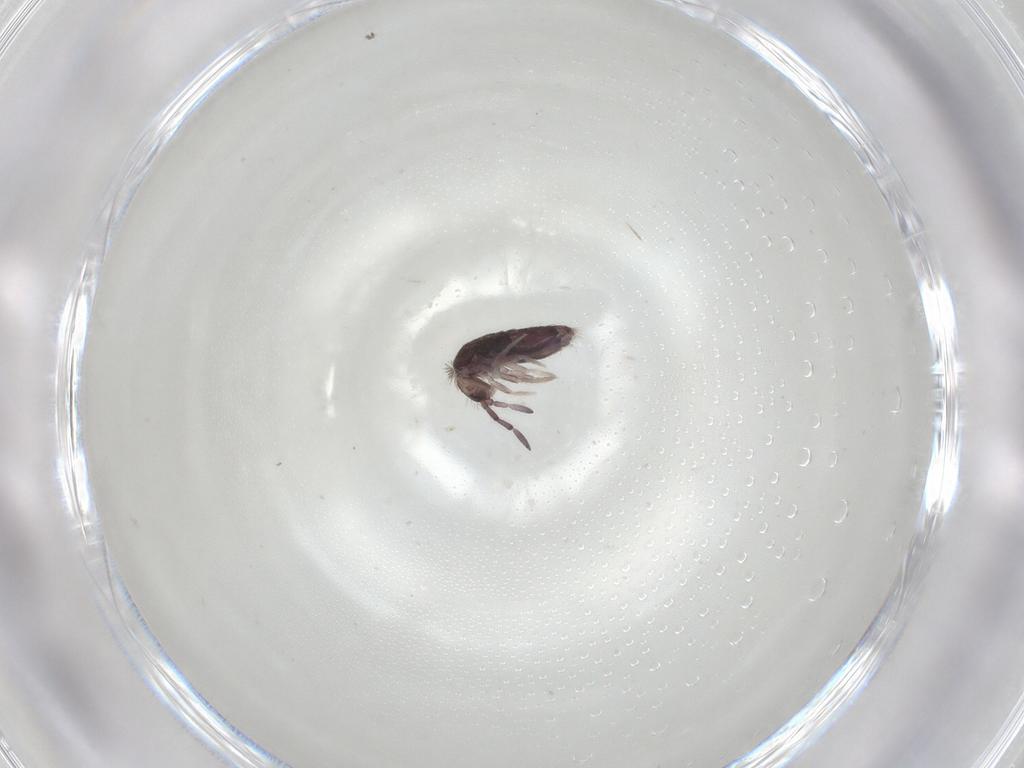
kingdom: Animalia
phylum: Arthropoda
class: Collembola
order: Entomobryomorpha
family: Entomobryidae
